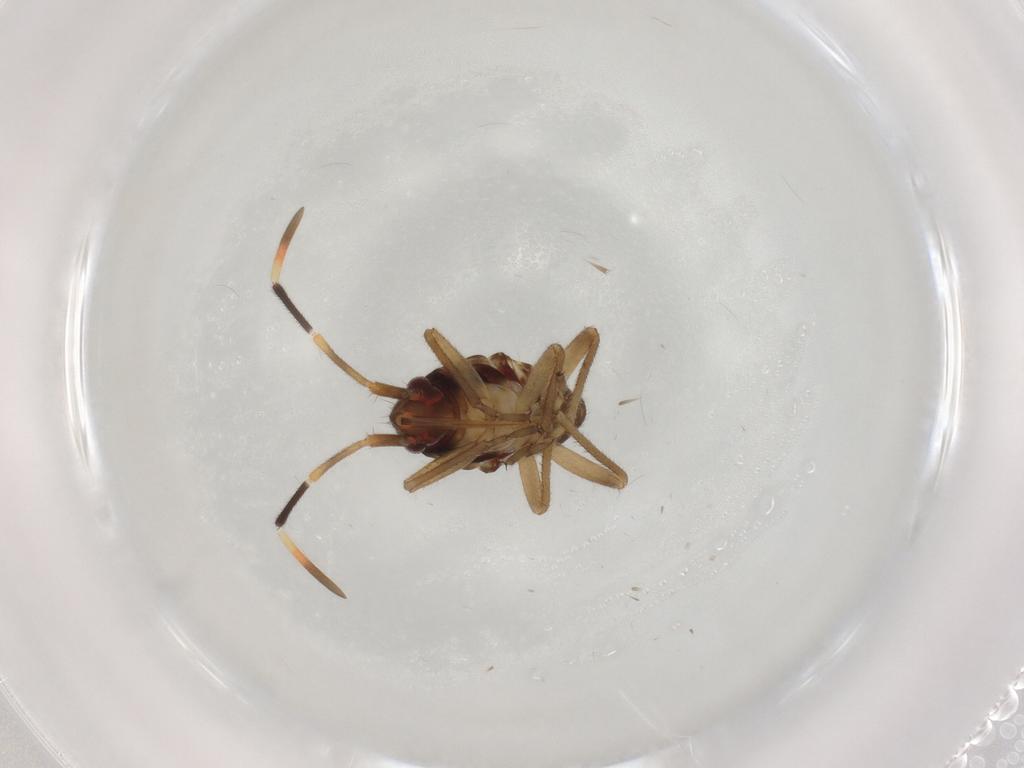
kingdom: Animalia
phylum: Arthropoda
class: Insecta
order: Hemiptera
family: Rhyparochromidae
